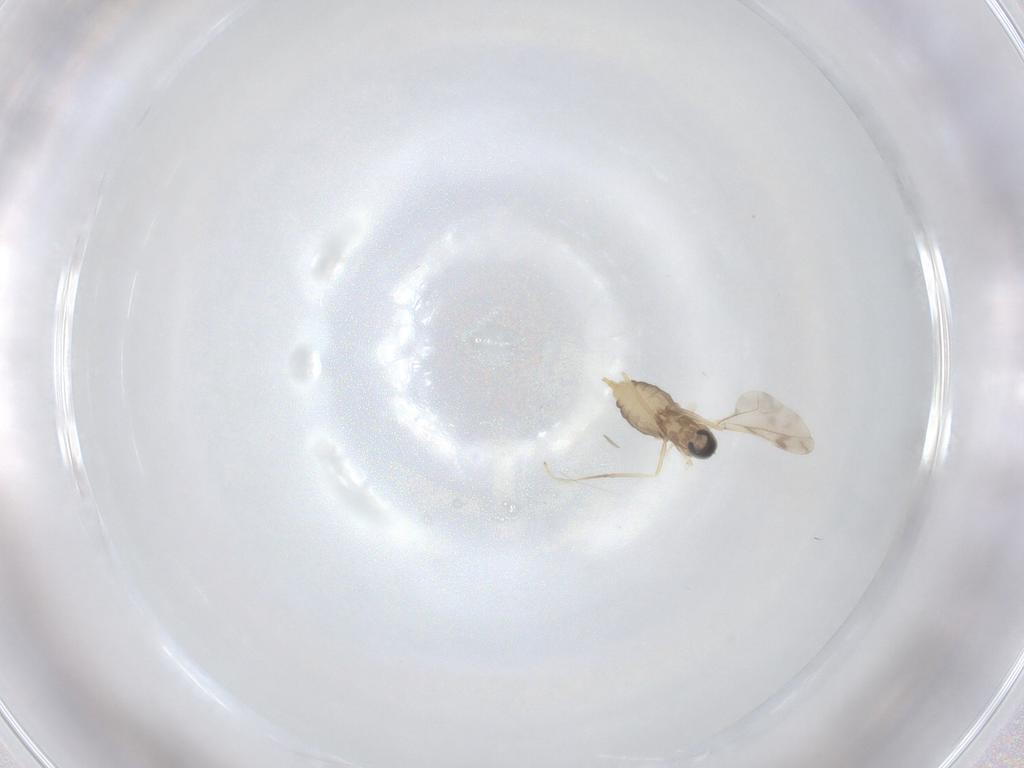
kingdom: Animalia
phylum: Arthropoda
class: Insecta
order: Diptera
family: Cecidomyiidae
